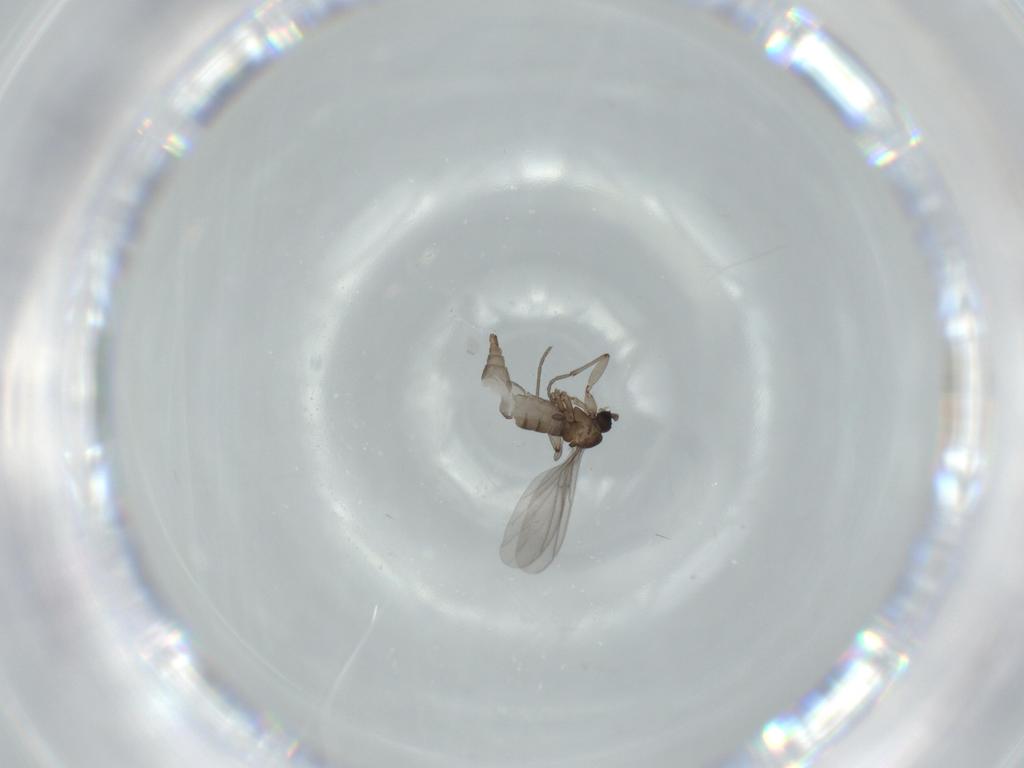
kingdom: Animalia
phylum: Arthropoda
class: Insecta
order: Diptera
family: Sciaridae
